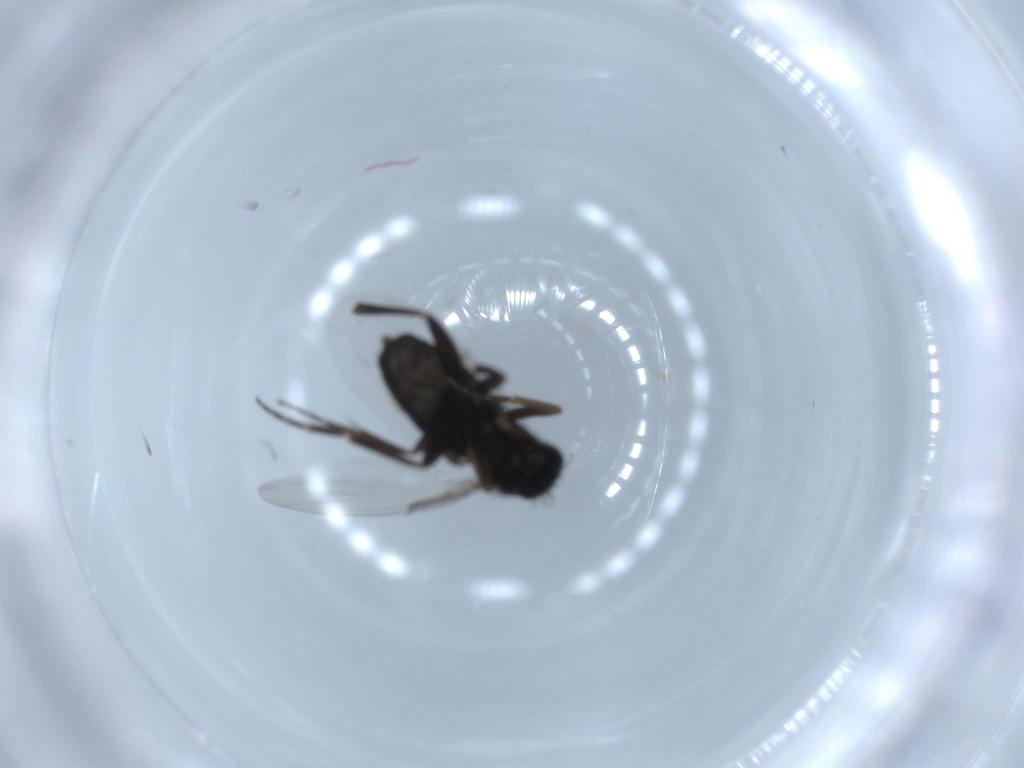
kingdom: Animalia
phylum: Arthropoda
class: Insecta
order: Diptera
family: Phoridae
